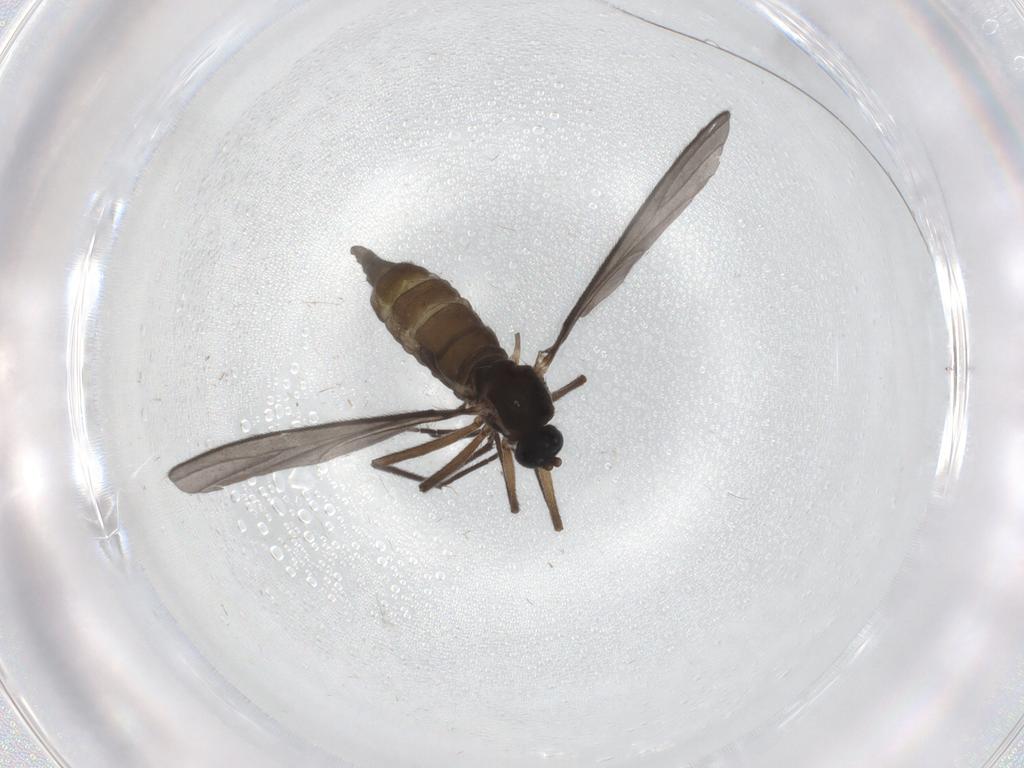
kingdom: Animalia
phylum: Arthropoda
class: Insecta
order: Diptera
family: Sciaridae
